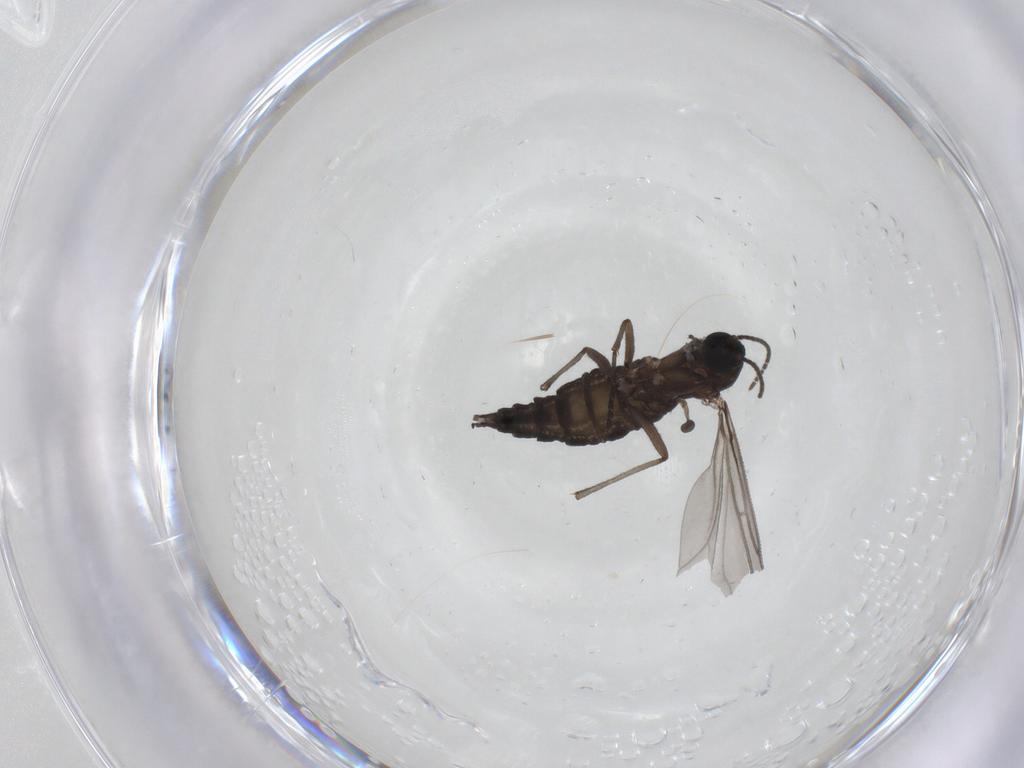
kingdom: Animalia
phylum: Arthropoda
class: Insecta
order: Diptera
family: Sciaridae
